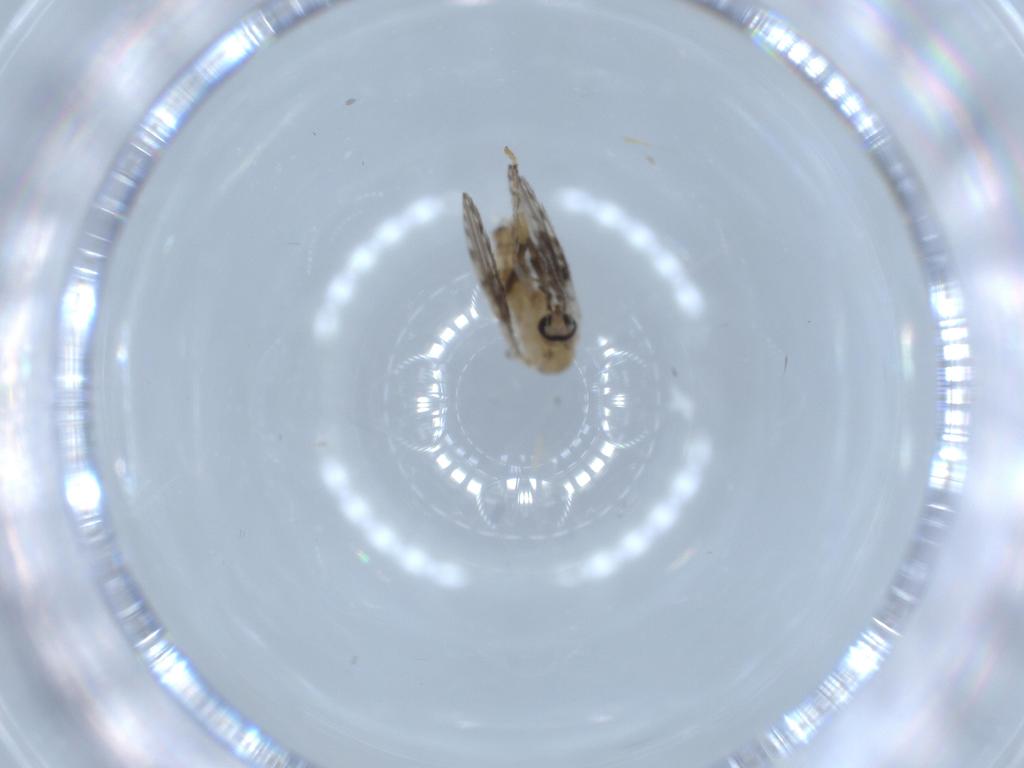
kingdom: Animalia
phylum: Arthropoda
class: Insecta
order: Diptera
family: Psychodidae
